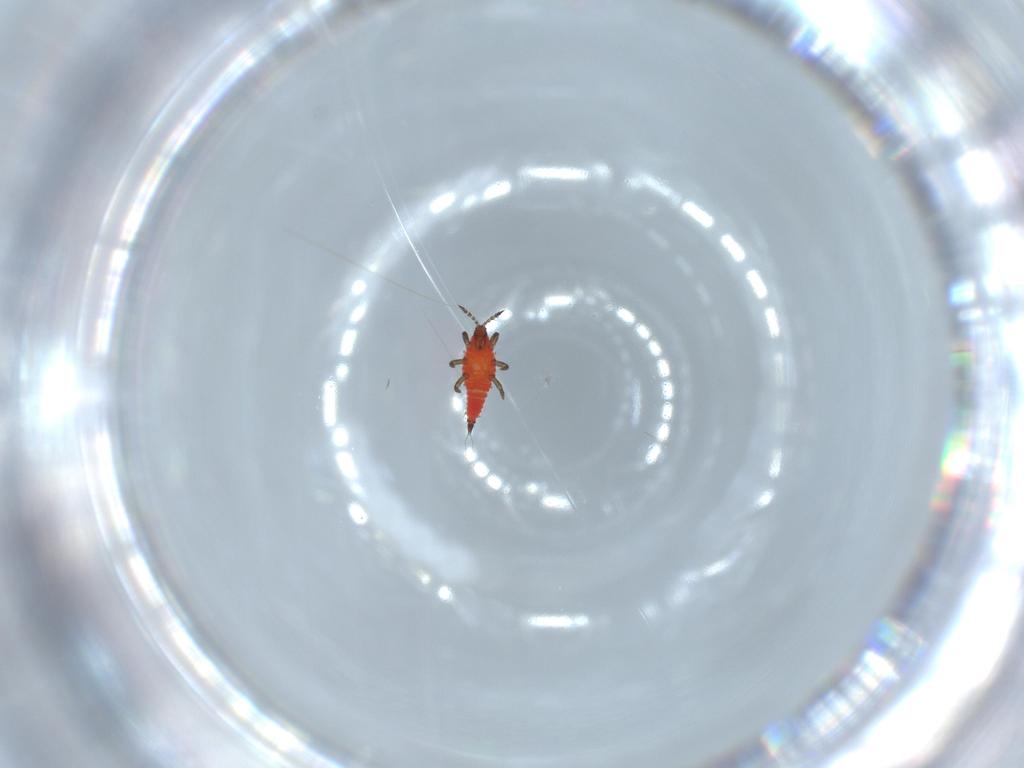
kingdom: Animalia
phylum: Arthropoda
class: Insecta
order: Thysanoptera
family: Phlaeothripidae
